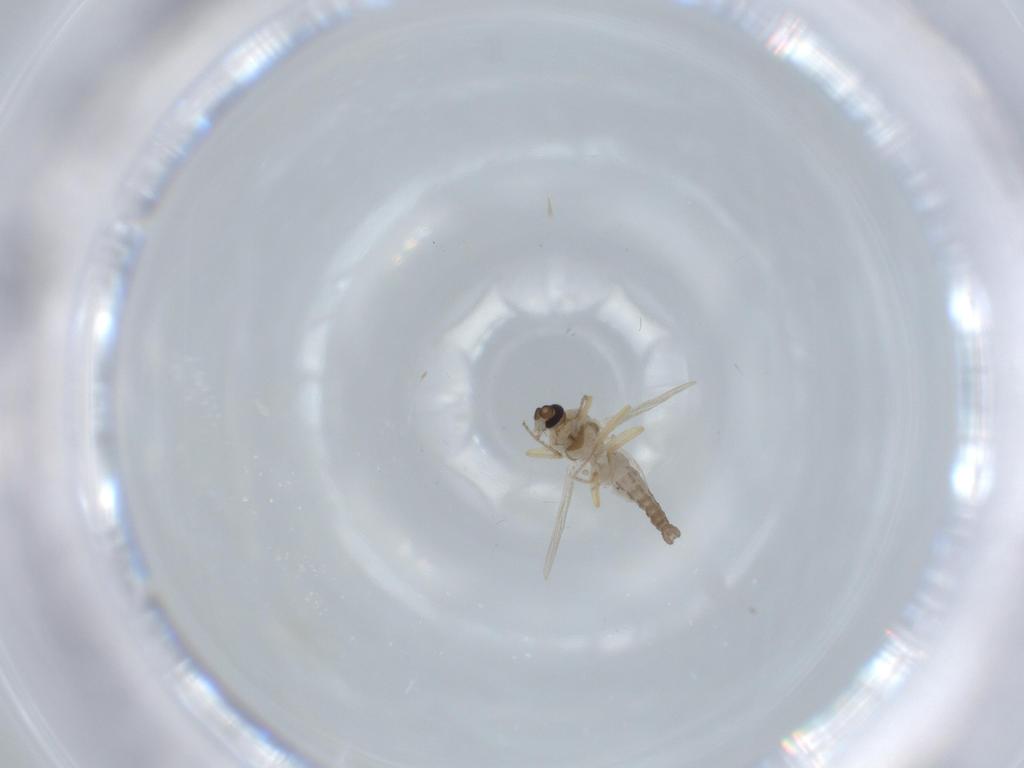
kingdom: Animalia
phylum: Arthropoda
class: Insecta
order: Diptera
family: Ceratopogonidae
